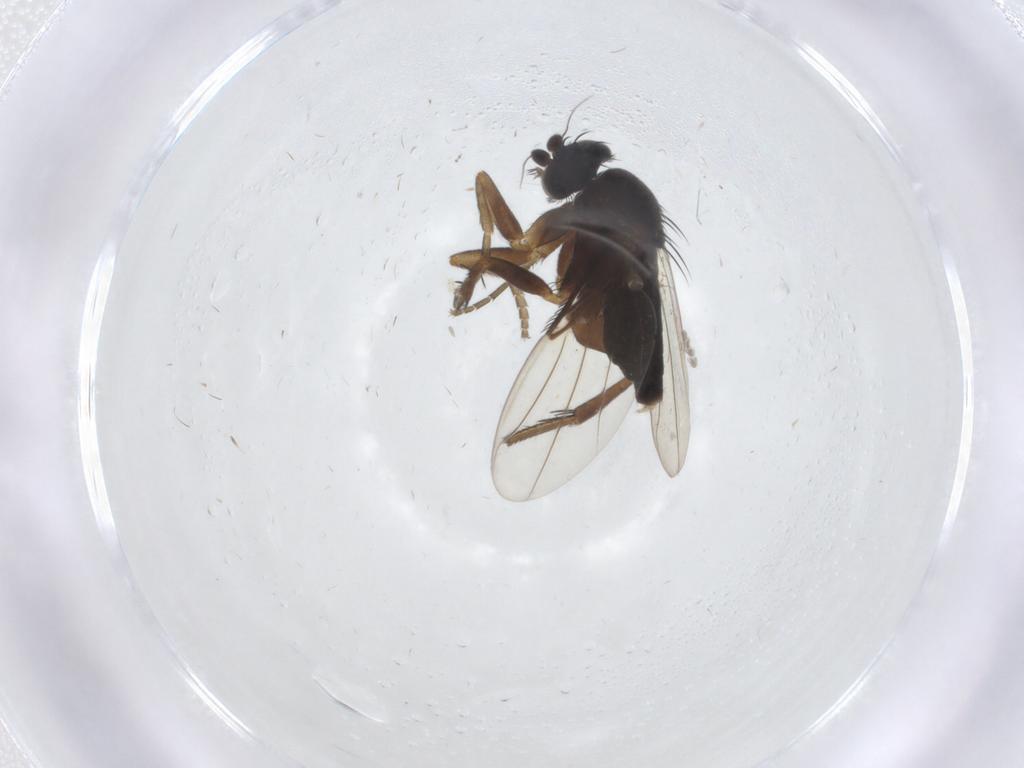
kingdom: Animalia
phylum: Arthropoda
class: Insecta
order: Diptera
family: Phoridae
